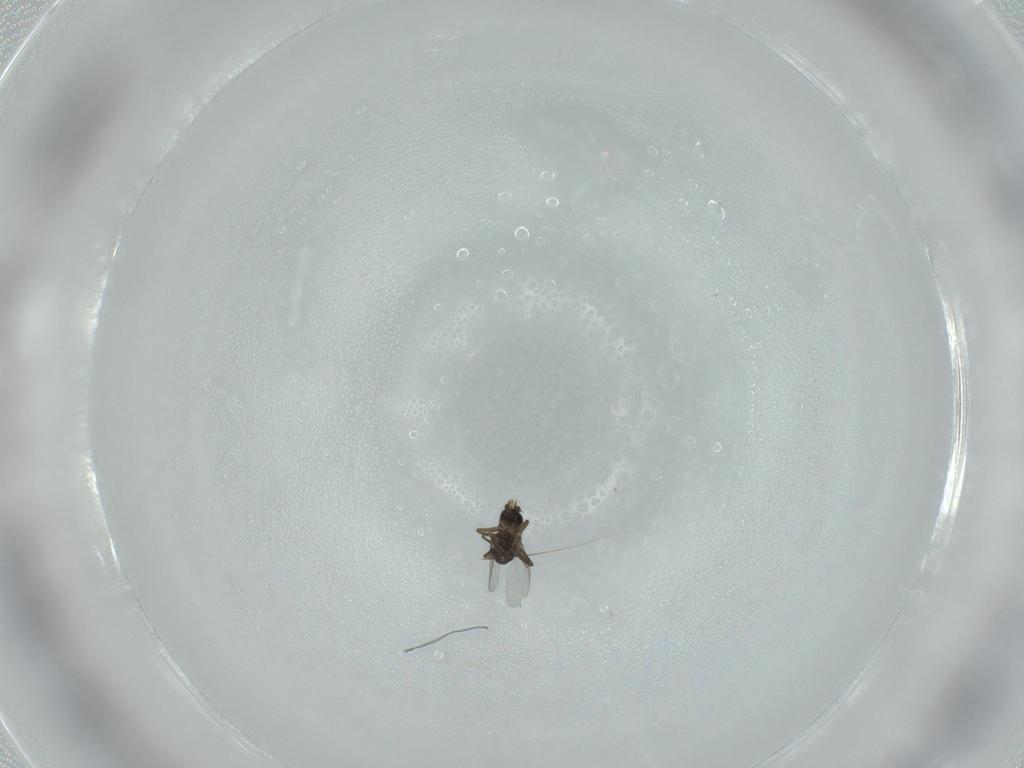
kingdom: Animalia
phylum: Arthropoda
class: Insecta
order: Diptera
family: Phoridae
